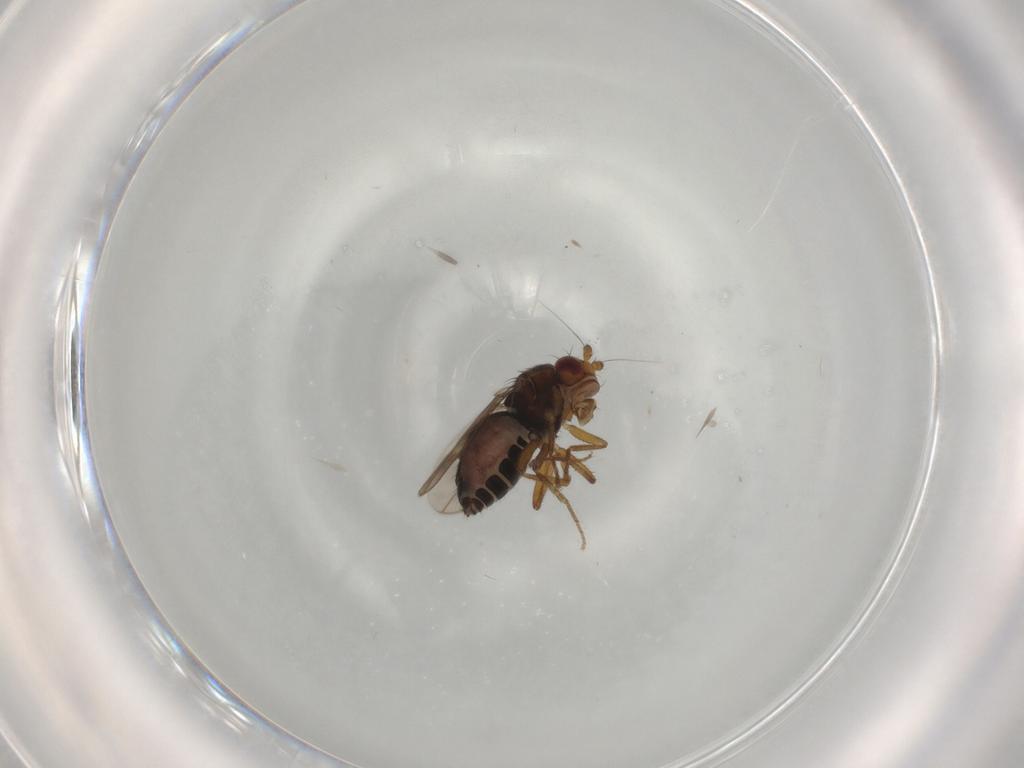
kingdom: Animalia
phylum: Arthropoda
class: Insecta
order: Diptera
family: Sphaeroceridae
